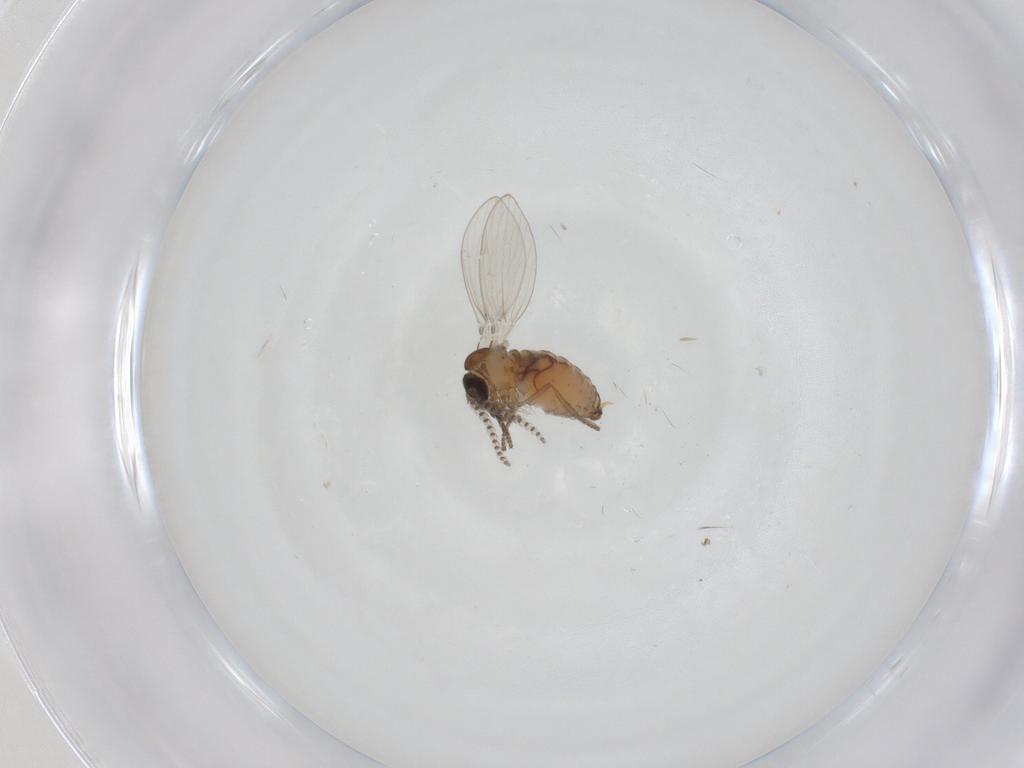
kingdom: Animalia
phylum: Arthropoda
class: Insecta
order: Diptera
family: Psychodidae
